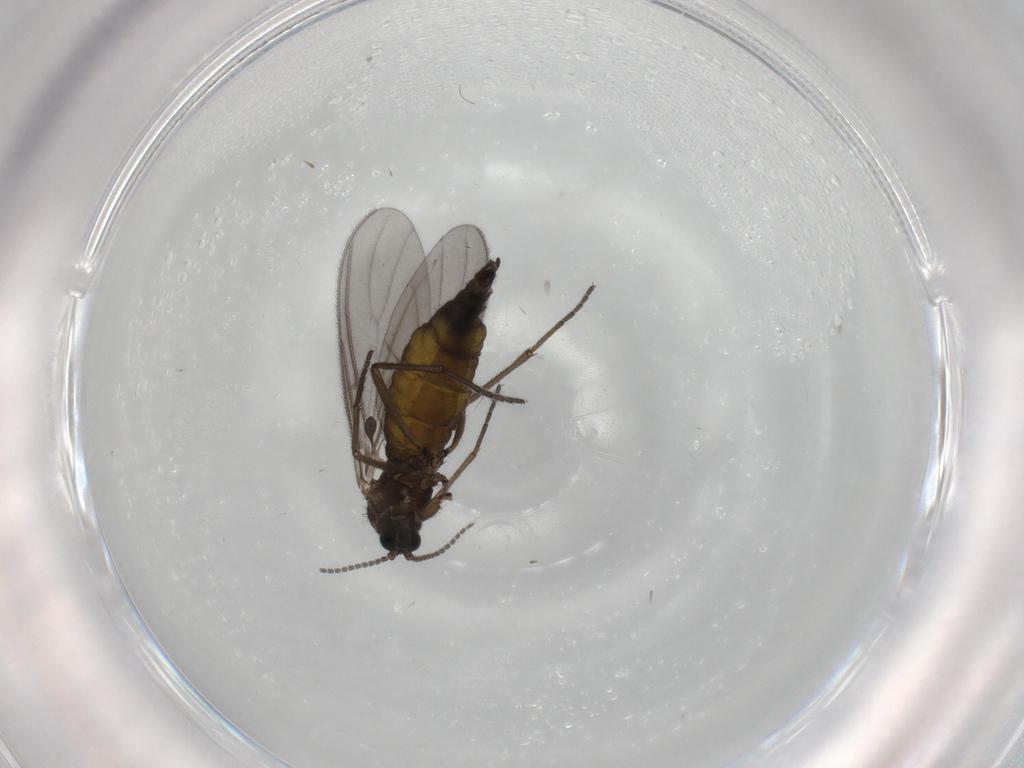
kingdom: Animalia
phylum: Arthropoda
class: Insecta
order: Diptera
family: Sciaridae
